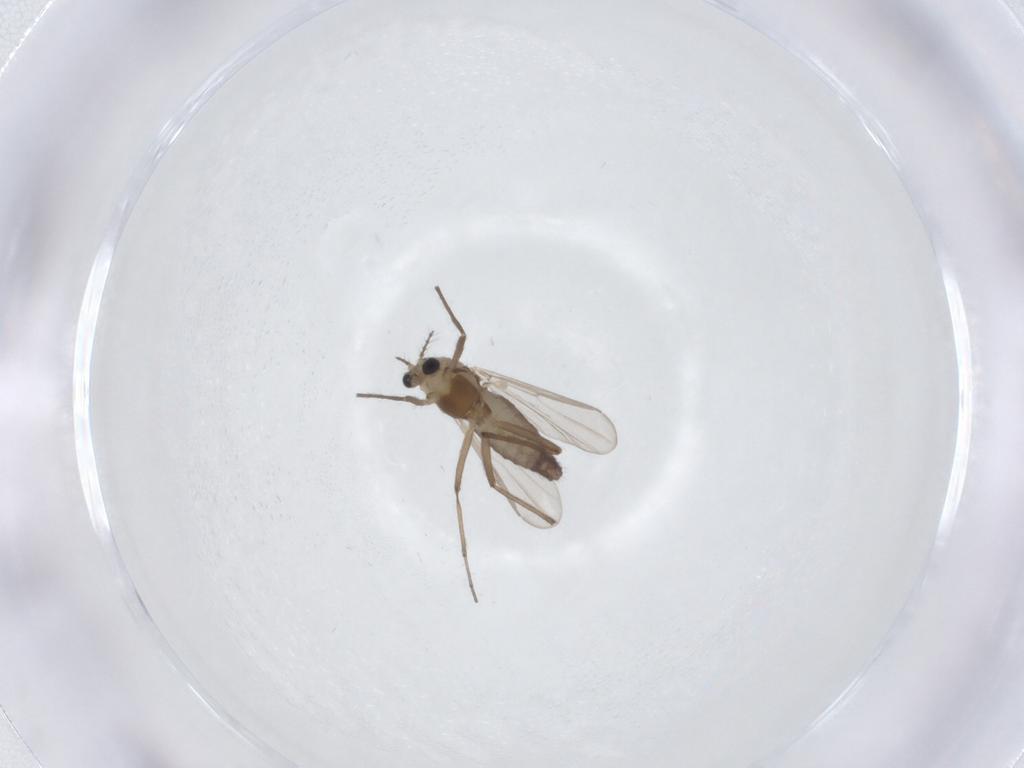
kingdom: Animalia
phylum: Arthropoda
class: Insecta
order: Diptera
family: Chironomidae
